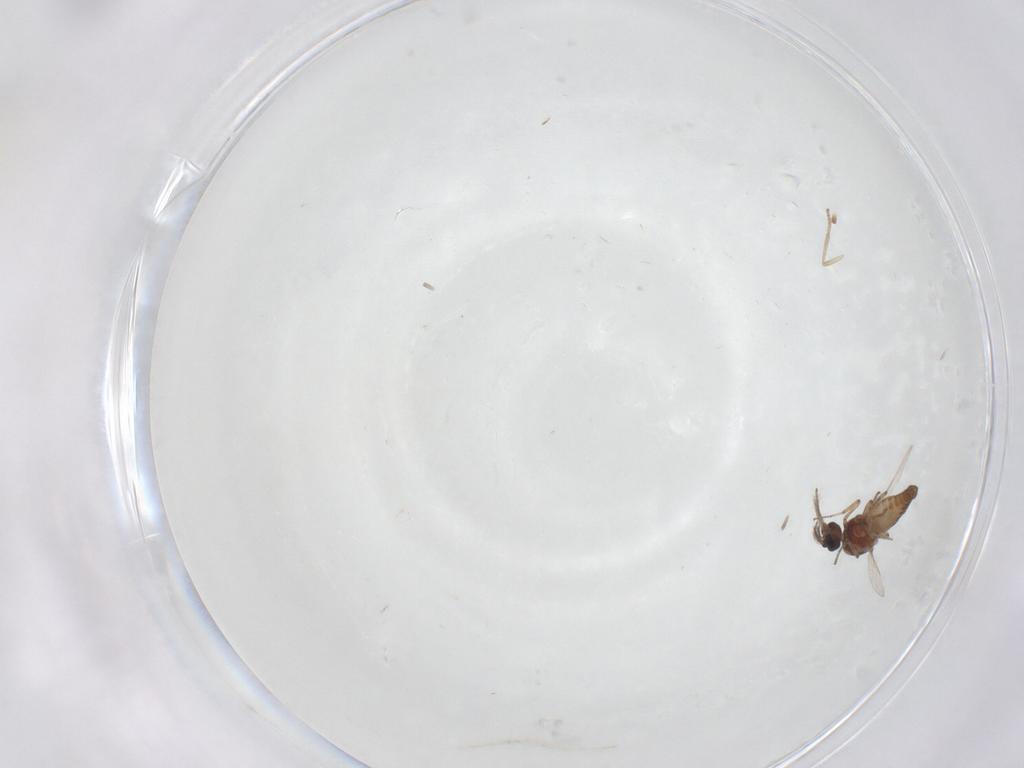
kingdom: Animalia
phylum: Arthropoda
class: Insecta
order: Diptera
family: Ceratopogonidae
